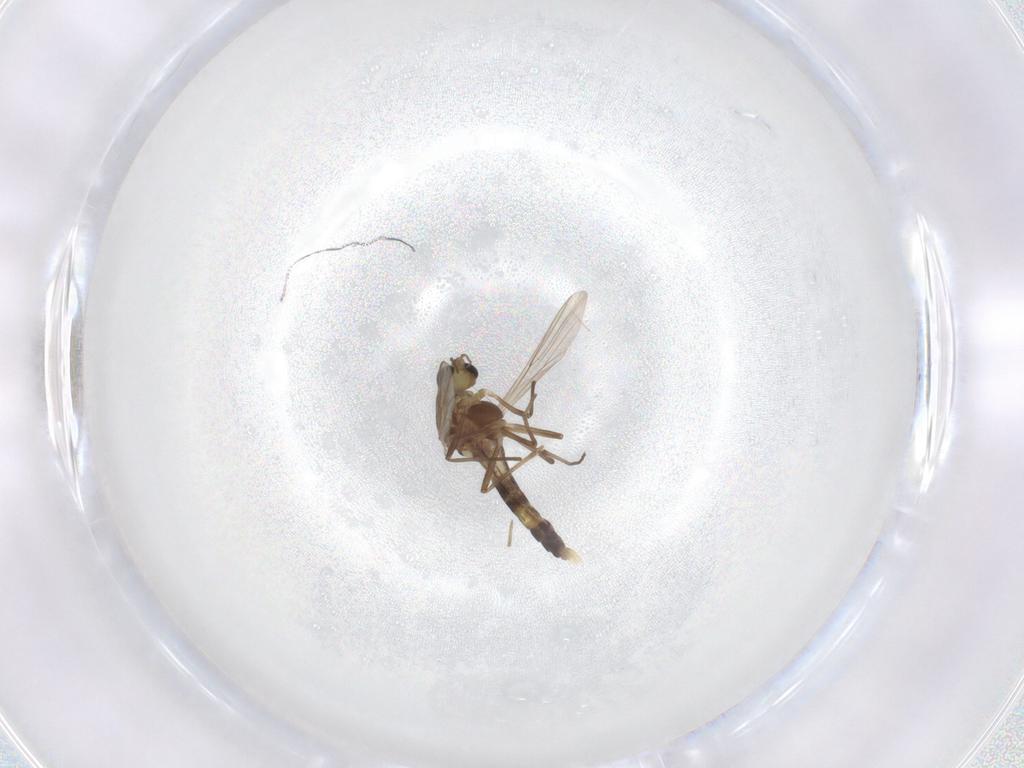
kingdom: Animalia
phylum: Arthropoda
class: Insecta
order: Diptera
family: Chironomidae
